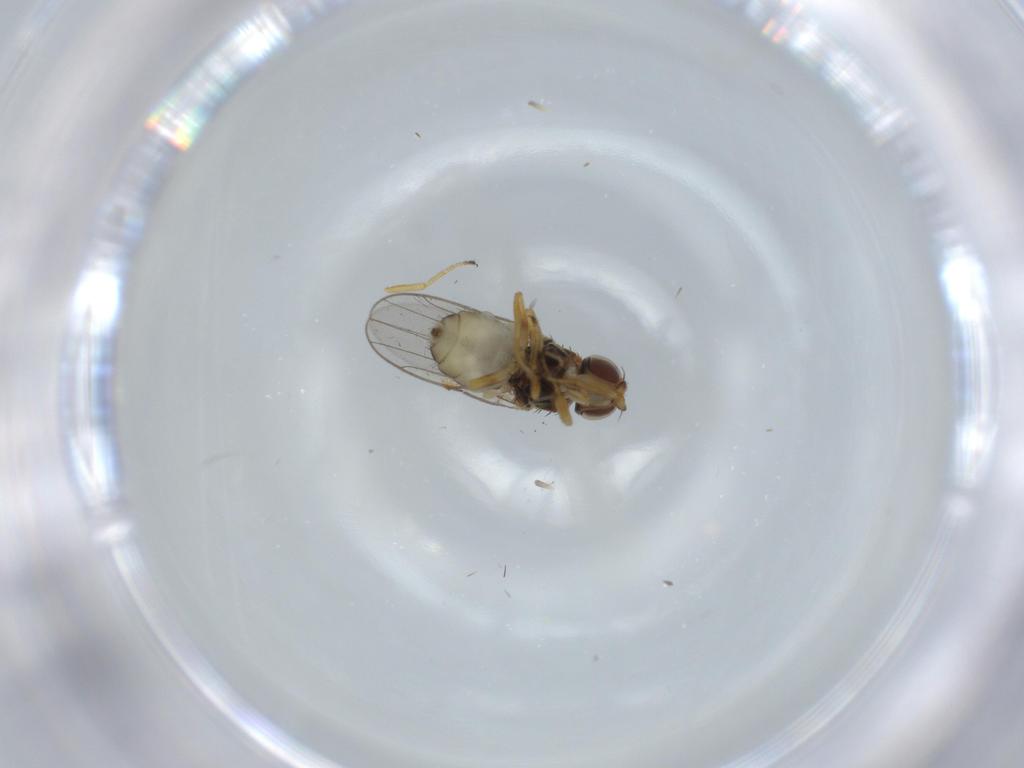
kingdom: Animalia
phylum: Arthropoda
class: Insecta
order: Diptera
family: Chloropidae
